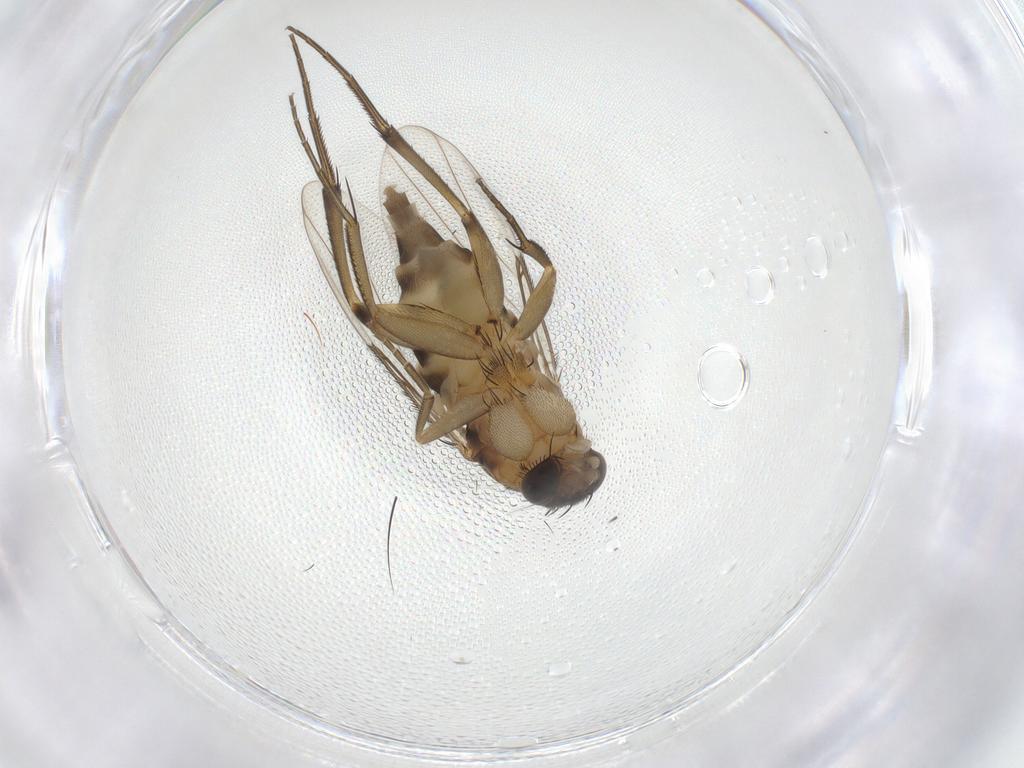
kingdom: Animalia
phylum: Arthropoda
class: Insecta
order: Diptera
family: Phoridae
